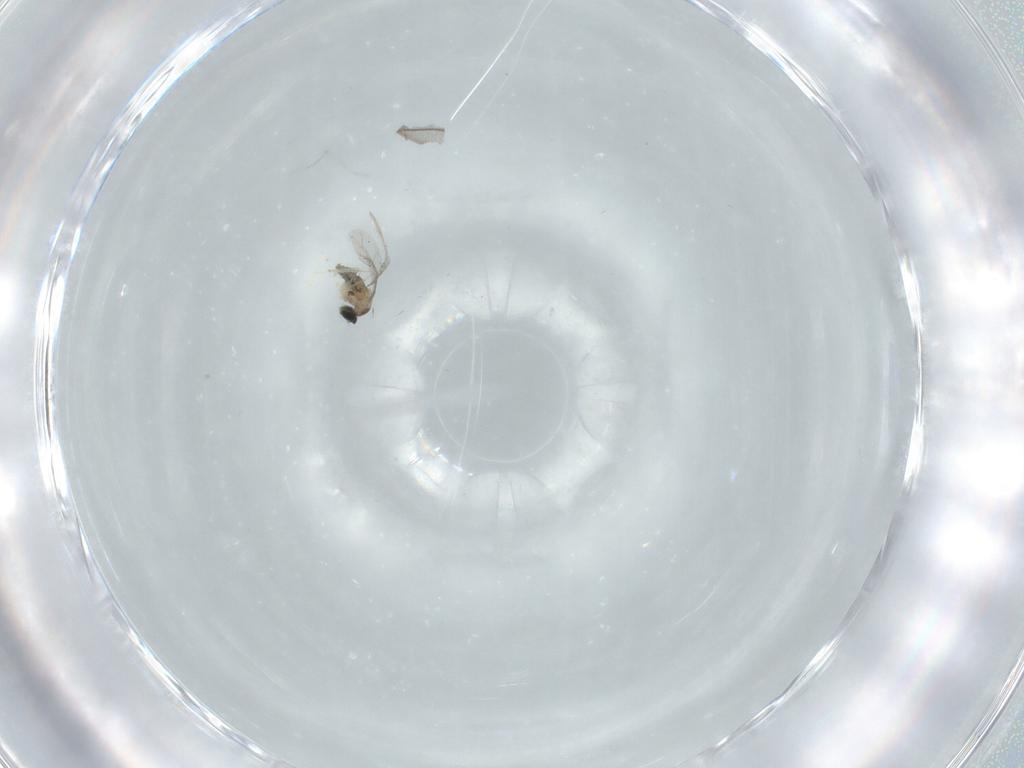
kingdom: Animalia
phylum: Arthropoda
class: Insecta
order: Diptera
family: Cecidomyiidae
